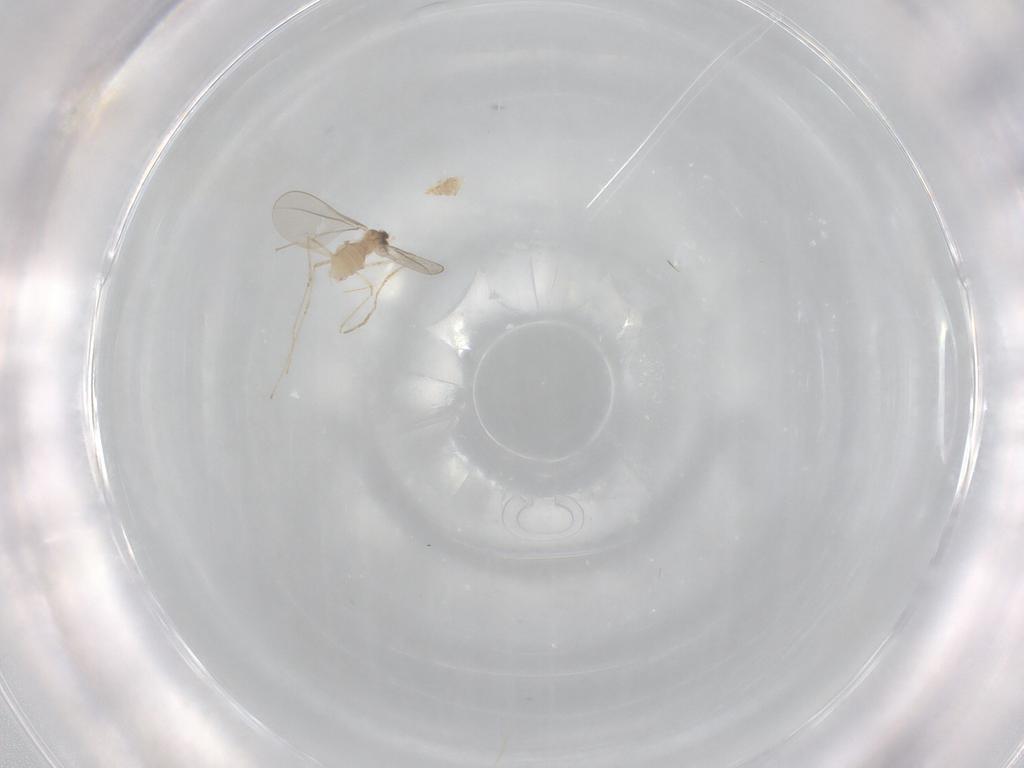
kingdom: Animalia
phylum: Arthropoda
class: Insecta
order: Diptera
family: Cecidomyiidae
